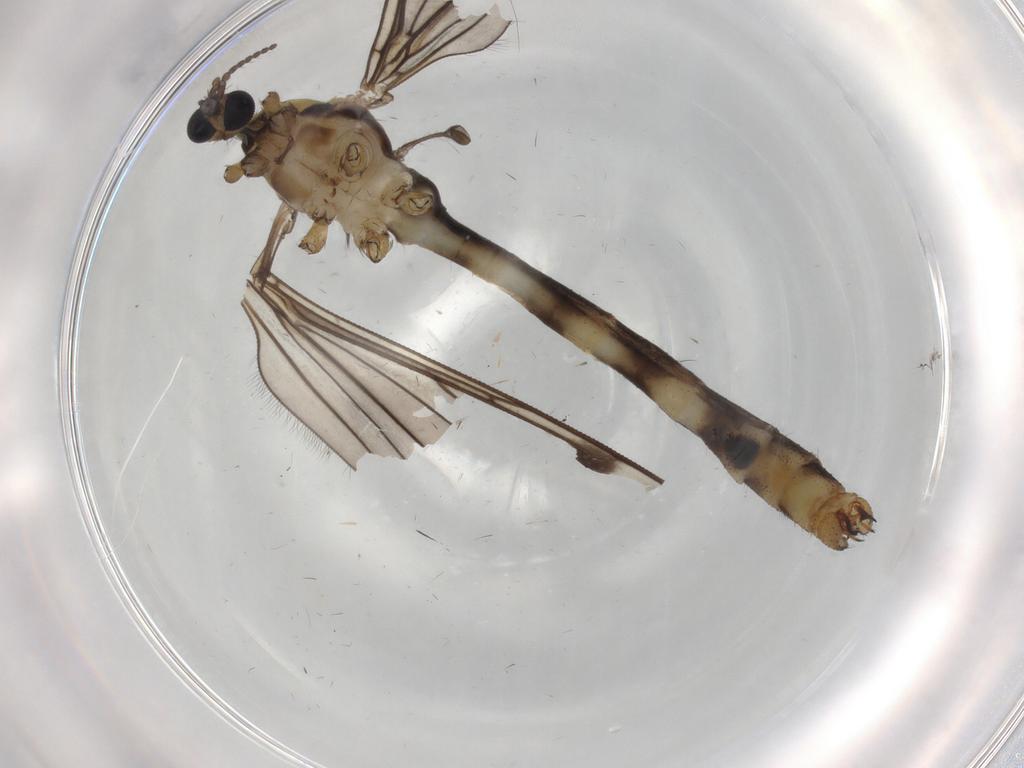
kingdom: Animalia
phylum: Arthropoda
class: Insecta
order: Diptera
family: Limoniidae
